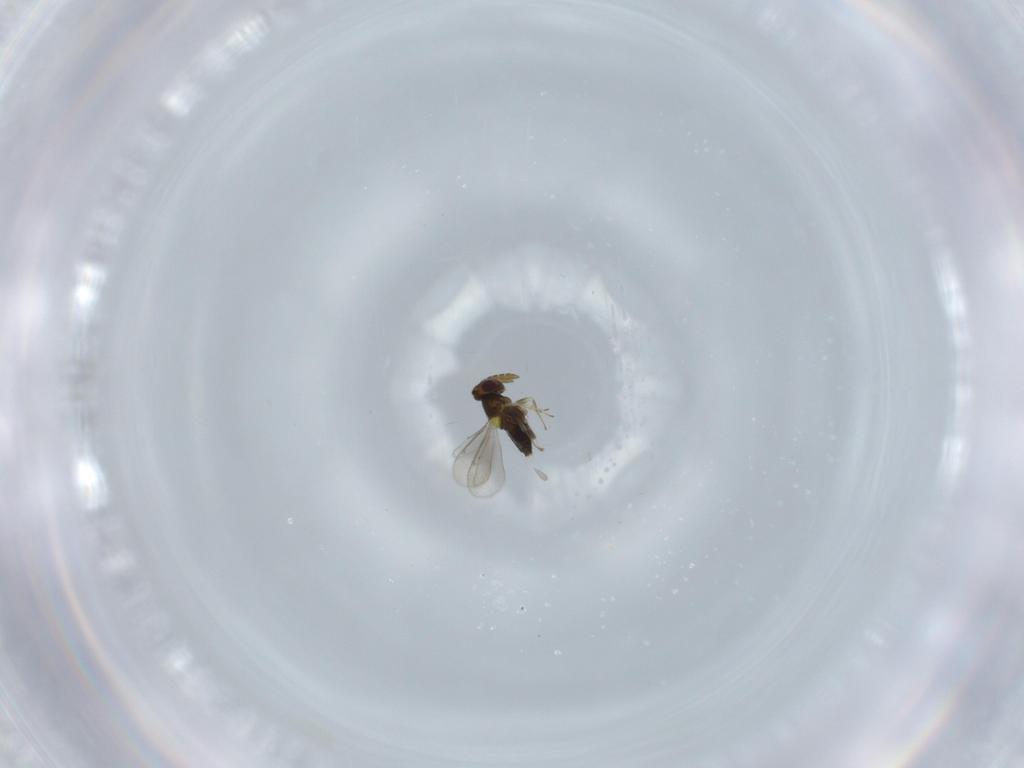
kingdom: Animalia
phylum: Arthropoda
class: Insecta
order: Hymenoptera
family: Aphelinidae
